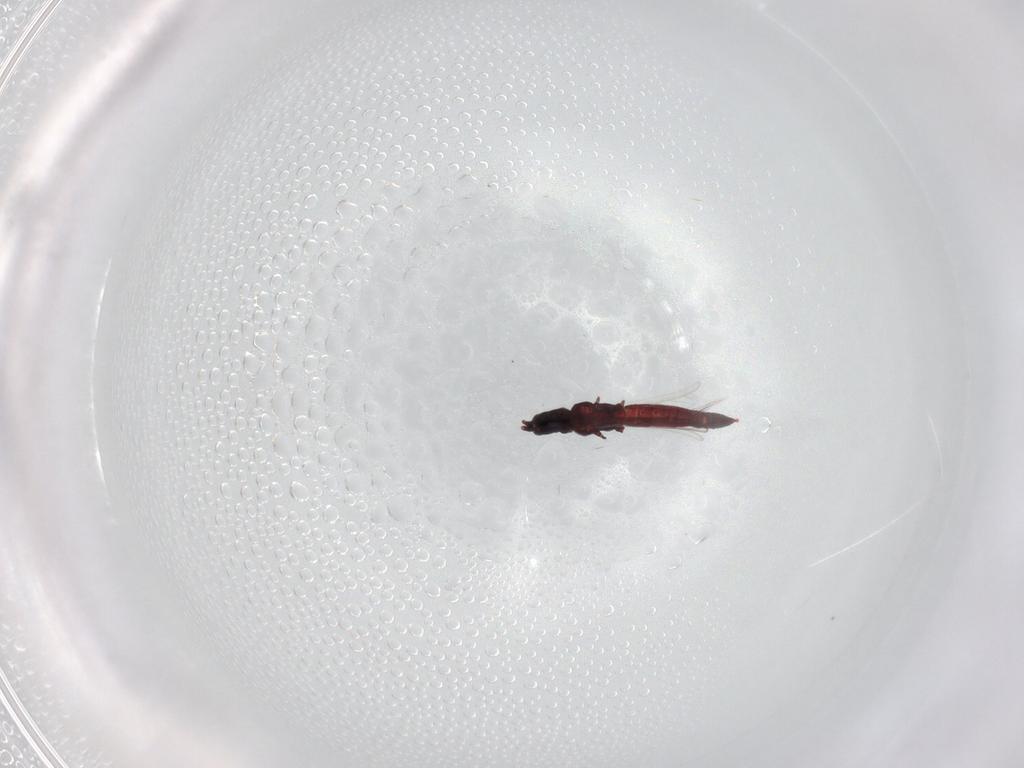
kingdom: Animalia
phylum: Arthropoda
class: Insecta
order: Thysanoptera
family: Aeolothripidae
